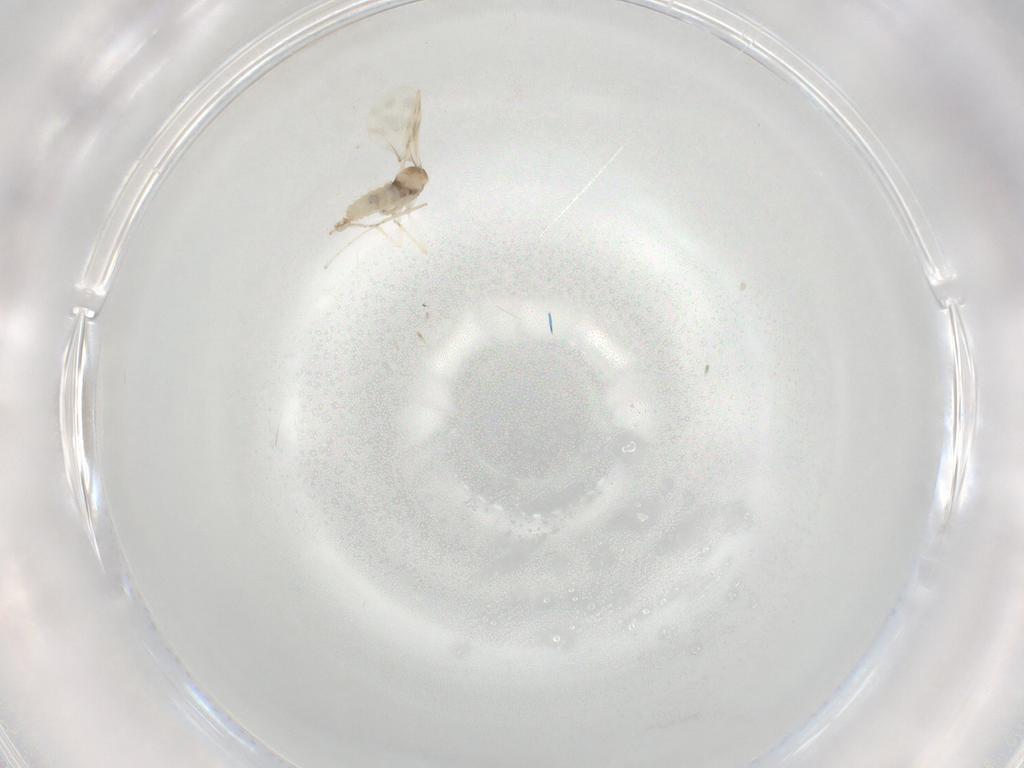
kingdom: Animalia
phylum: Arthropoda
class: Insecta
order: Diptera
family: Cecidomyiidae
